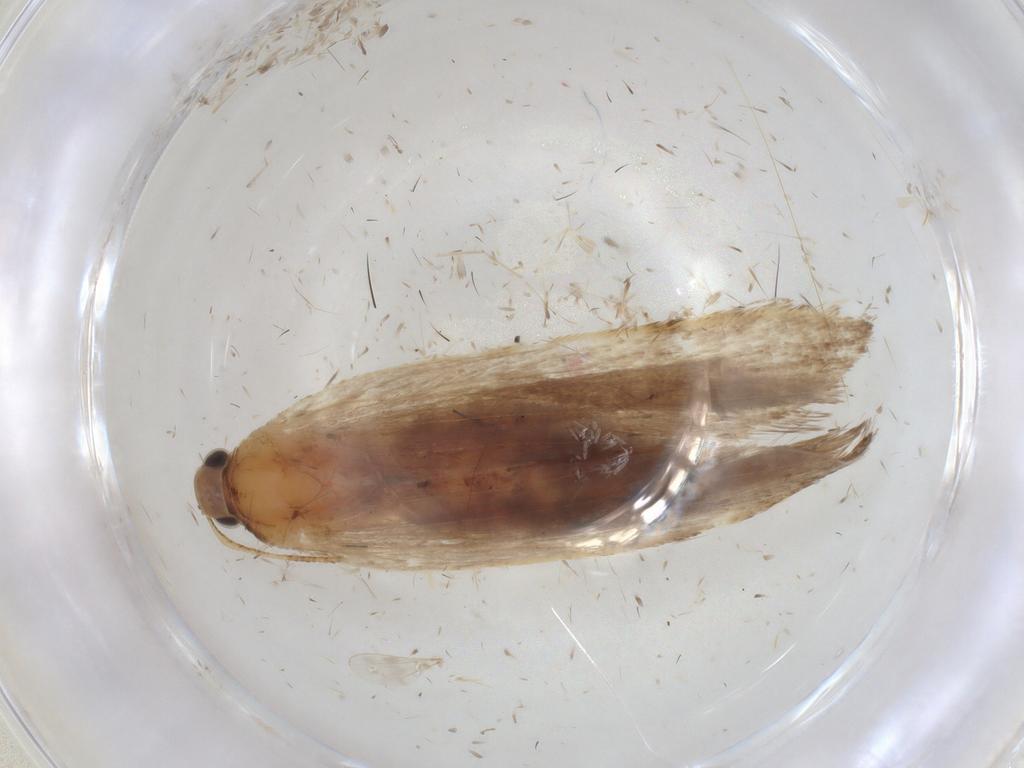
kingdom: Animalia
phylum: Arthropoda
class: Insecta
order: Lepidoptera
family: Gelechiidae
